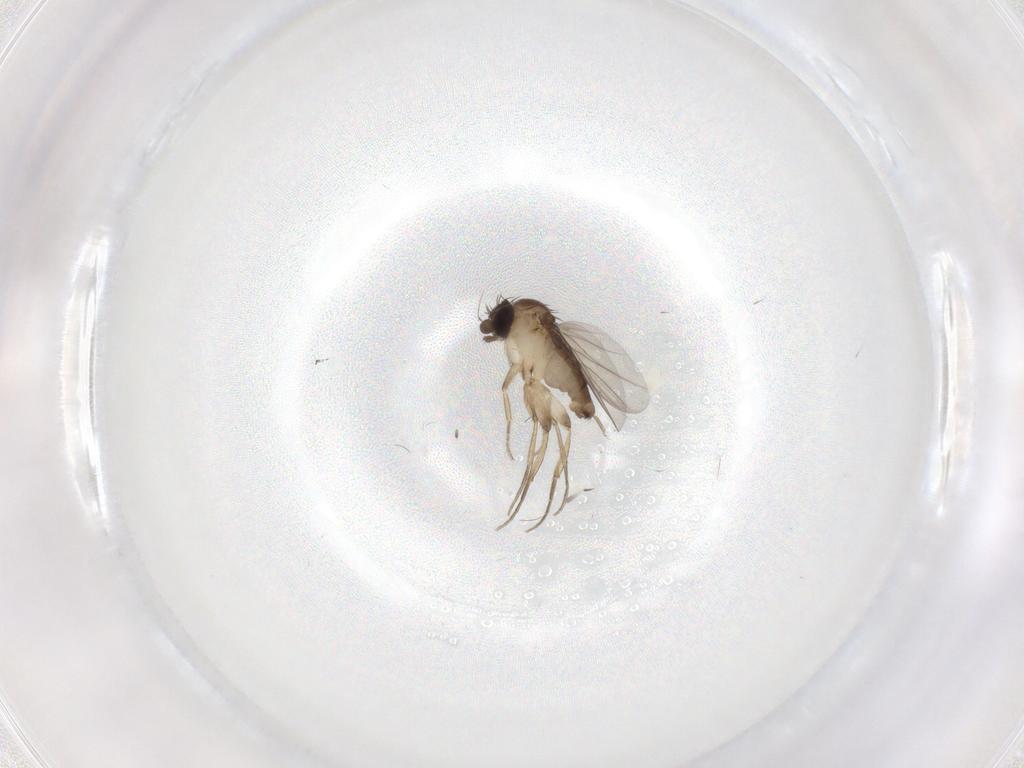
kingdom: Animalia
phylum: Arthropoda
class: Insecta
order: Diptera
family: Phoridae
